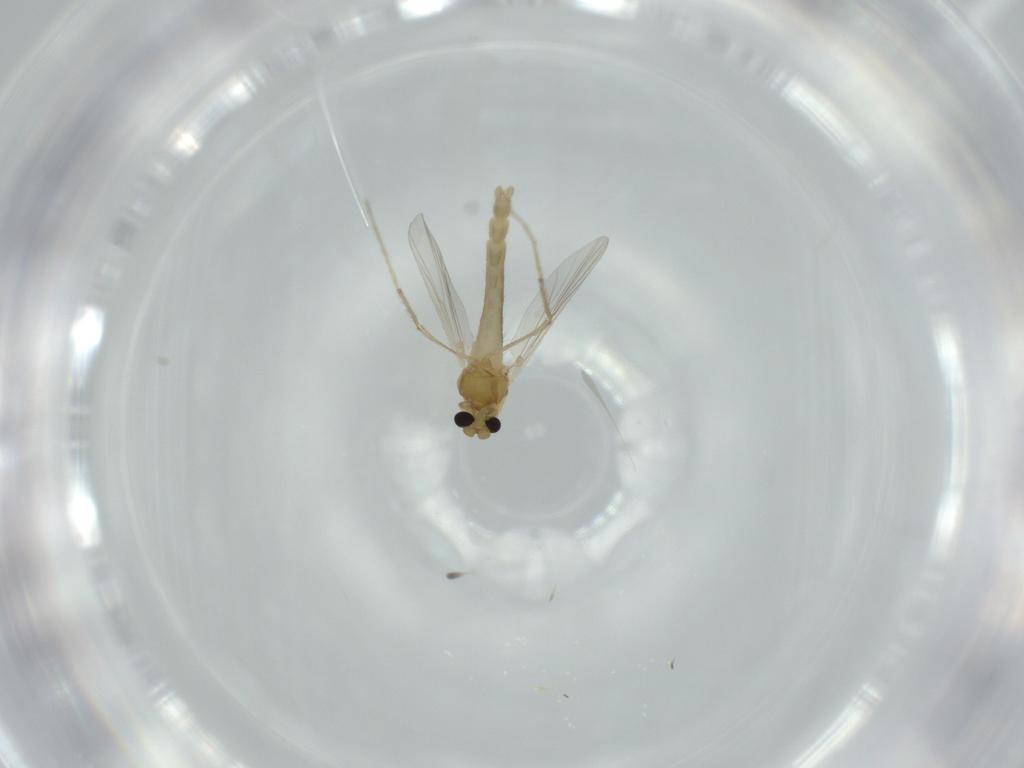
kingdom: Animalia
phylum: Arthropoda
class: Insecta
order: Diptera
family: Chironomidae
